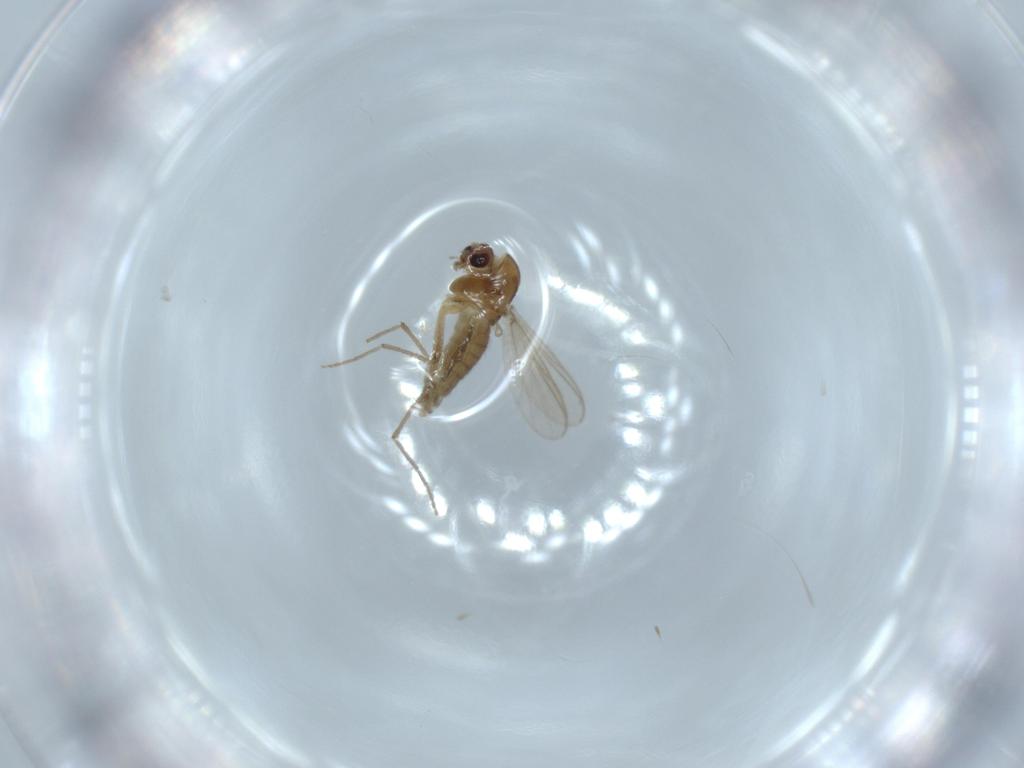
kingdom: Animalia
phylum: Arthropoda
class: Insecta
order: Diptera
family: Chironomidae
